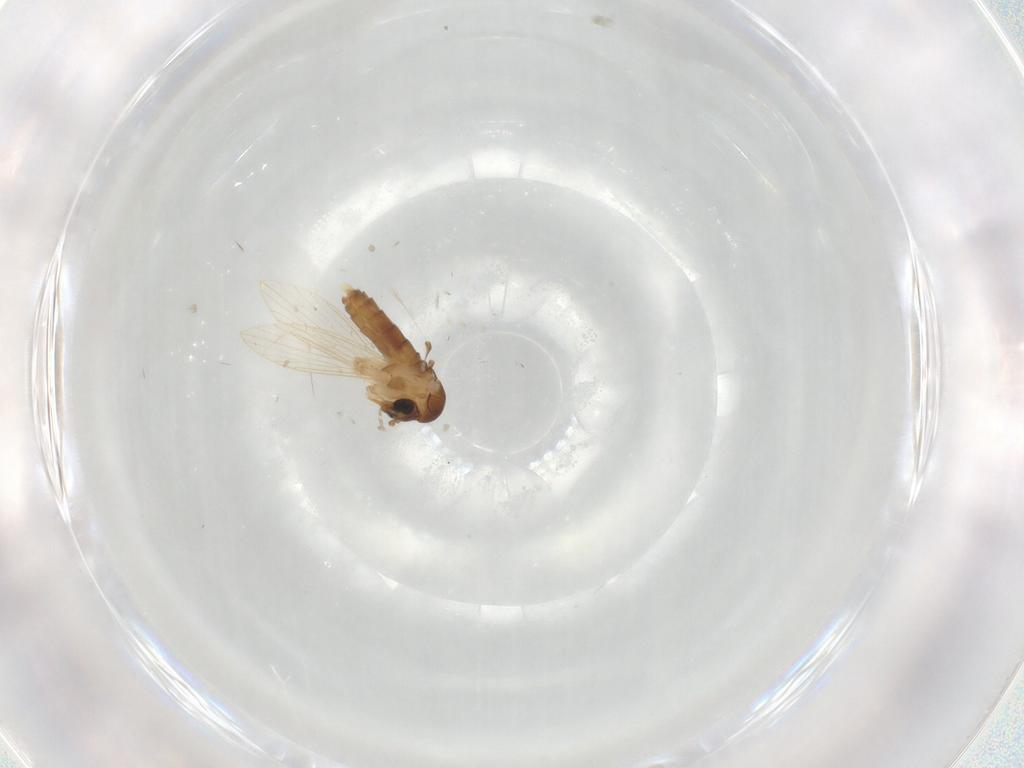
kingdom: Animalia
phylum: Arthropoda
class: Insecta
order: Diptera
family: Psychodidae
